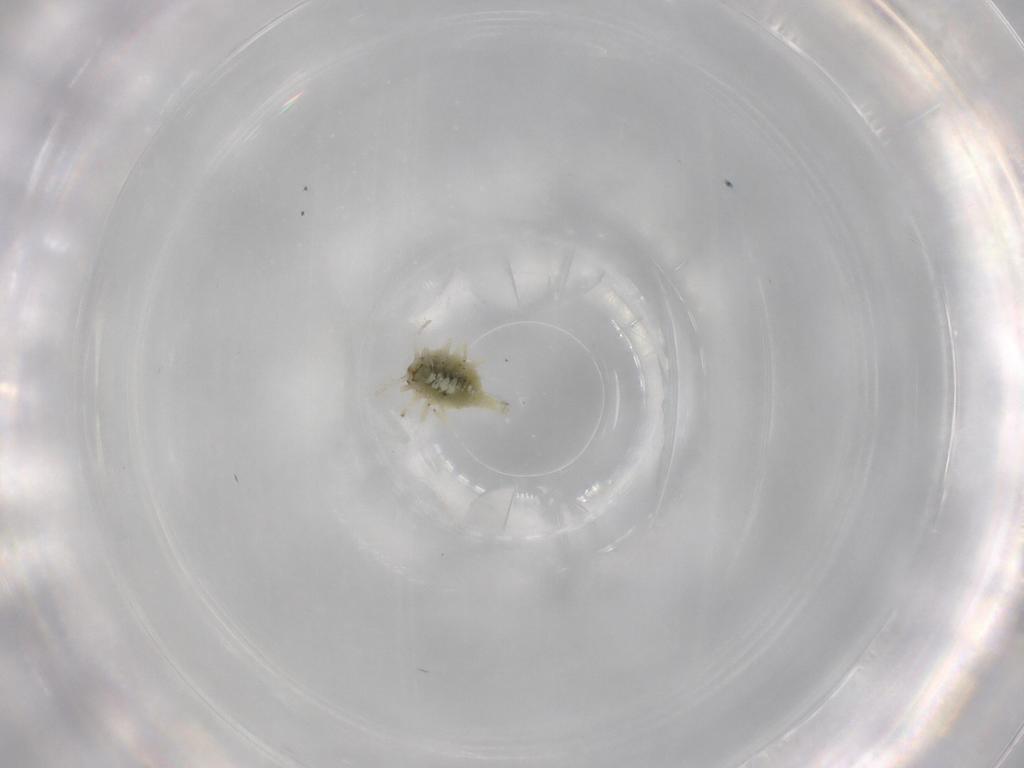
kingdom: Animalia
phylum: Arthropoda
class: Insecta
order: Neuroptera
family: Coniopterygidae
